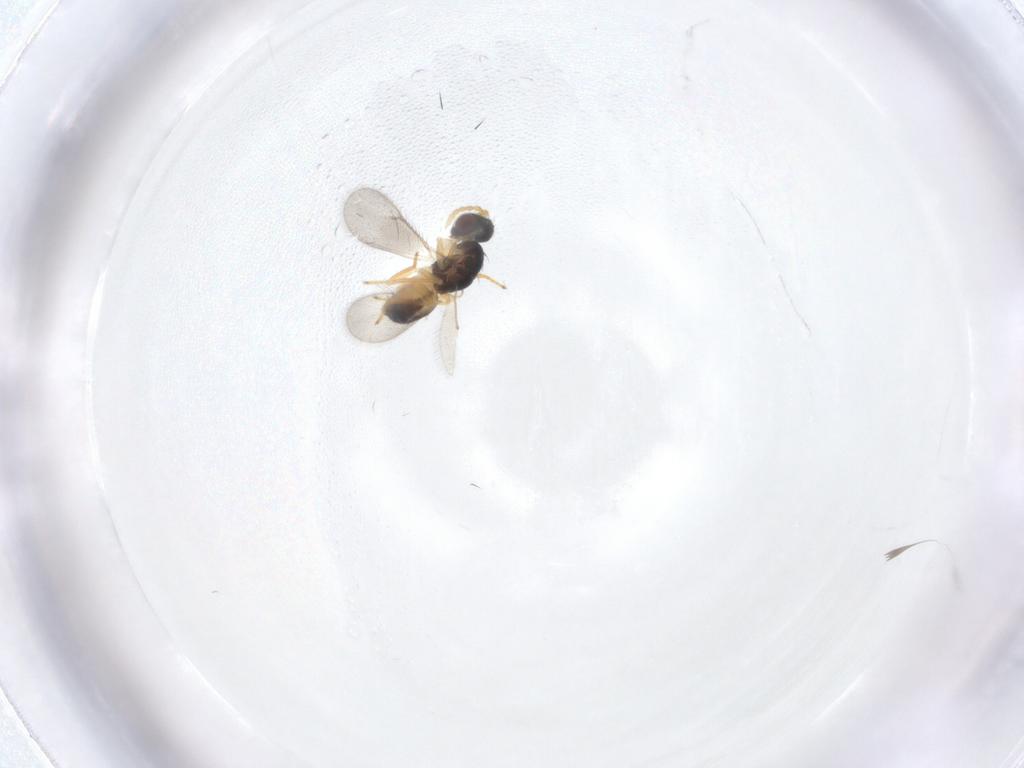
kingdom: Animalia
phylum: Arthropoda
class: Insecta
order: Hymenoptera
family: Eulophidae
